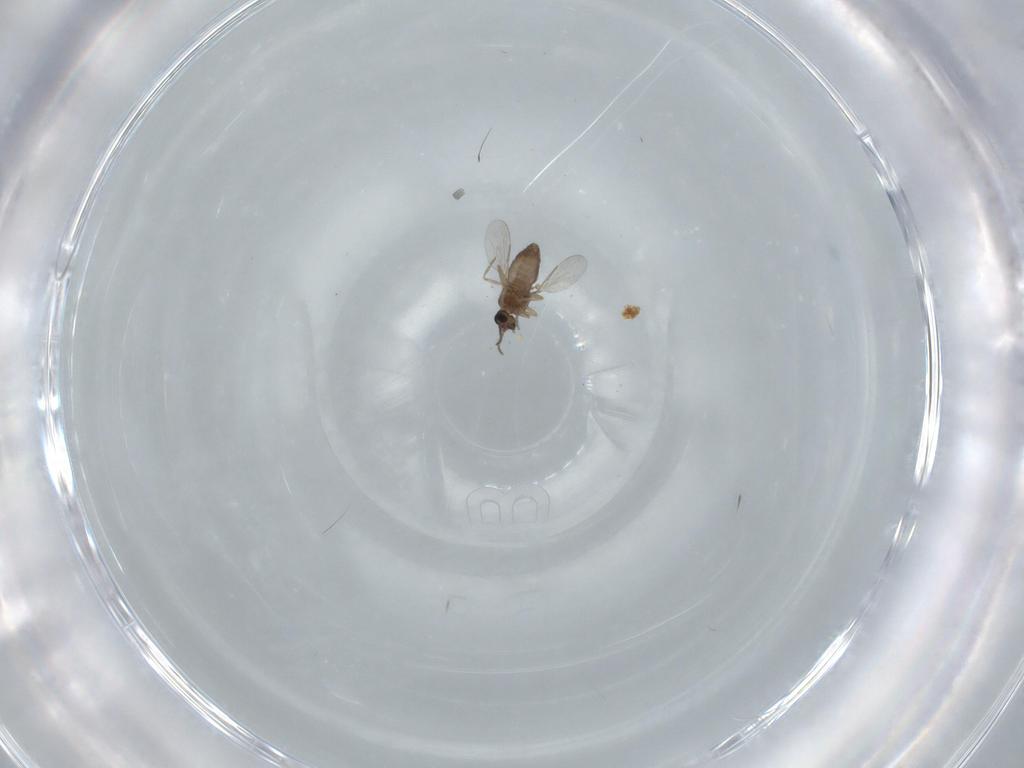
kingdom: Animalia
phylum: Arthropoda
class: Insecta
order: Diptera
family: Ceratopogonidae
